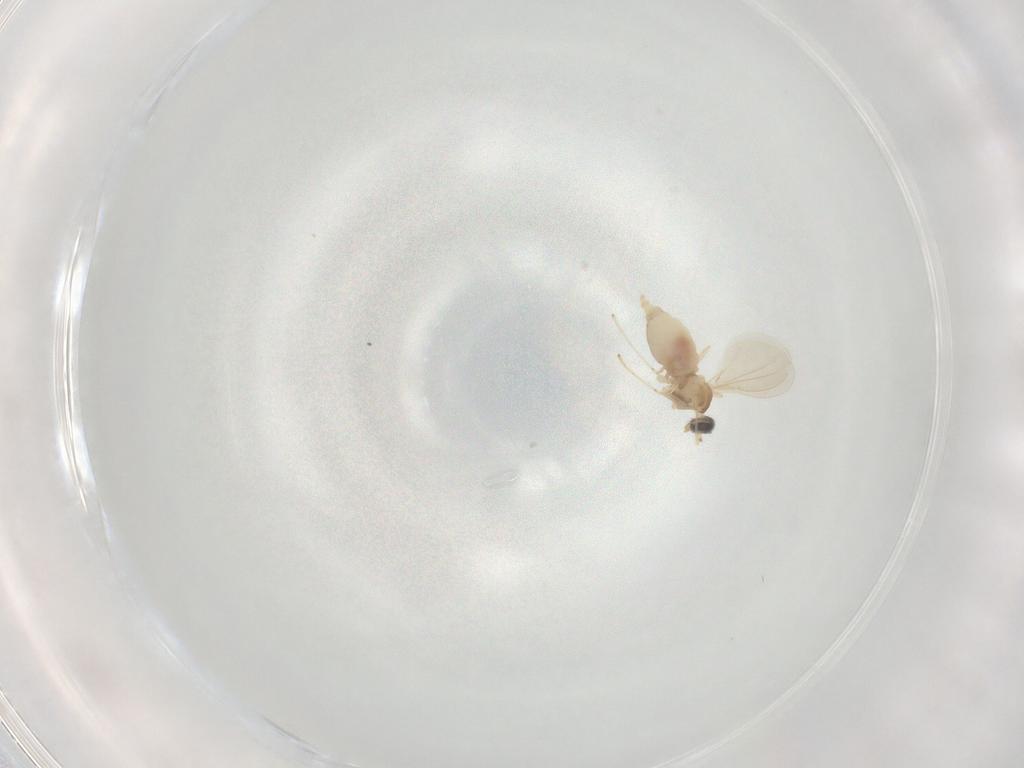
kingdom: Animalia
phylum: Arthropoda
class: Insecta
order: Diptera
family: Cecidomyiidae
